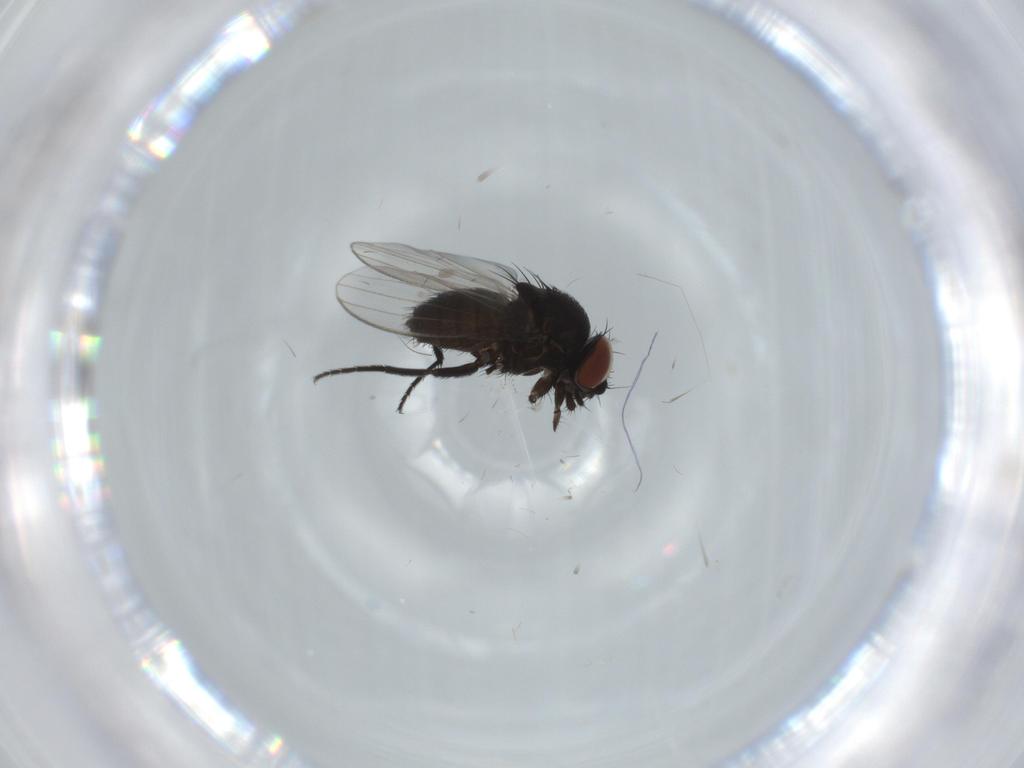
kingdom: Animalia
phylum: Arthropoda
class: Insecta
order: Diptera
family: Milichiidae
